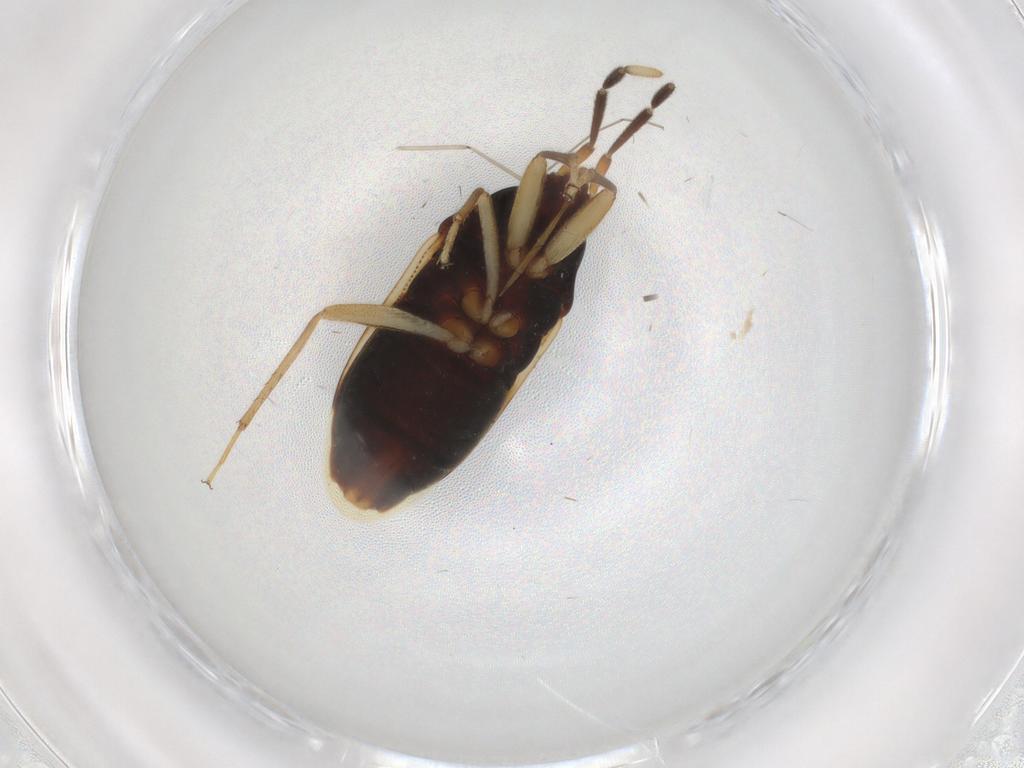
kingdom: Animalia
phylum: Arthropoda
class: Insecta
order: Hemiptera
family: Rhyparochromidae
